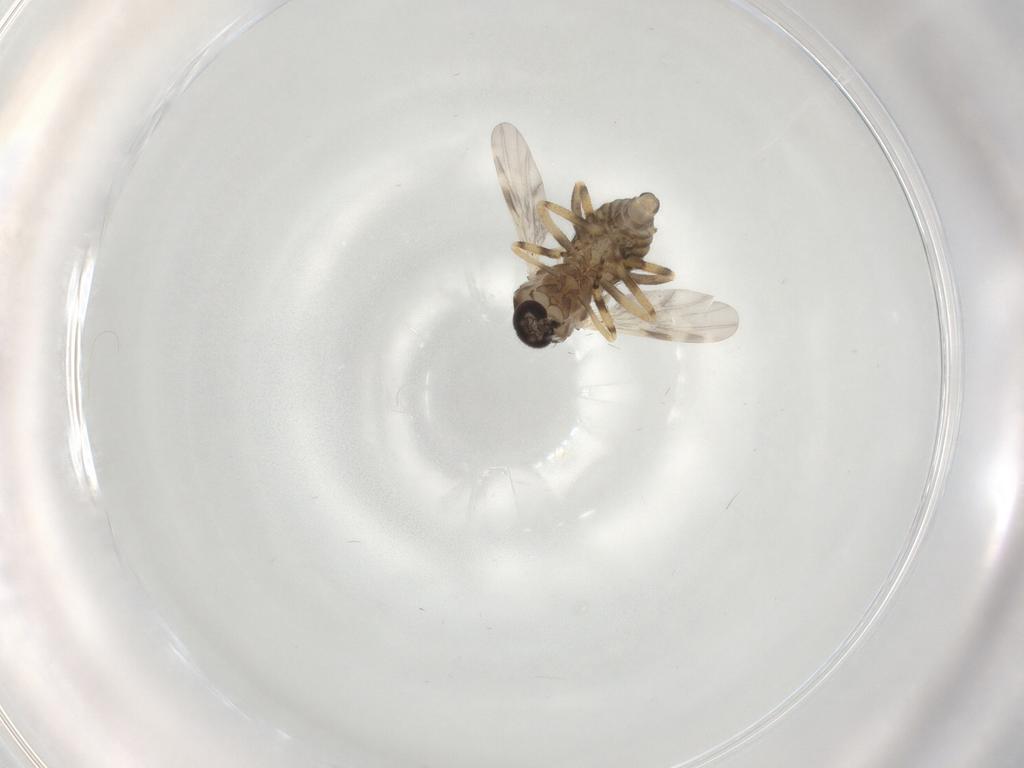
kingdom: Animalia
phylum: Arthropoda
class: Insecta
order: Diptera
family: Ceratopogonidae
